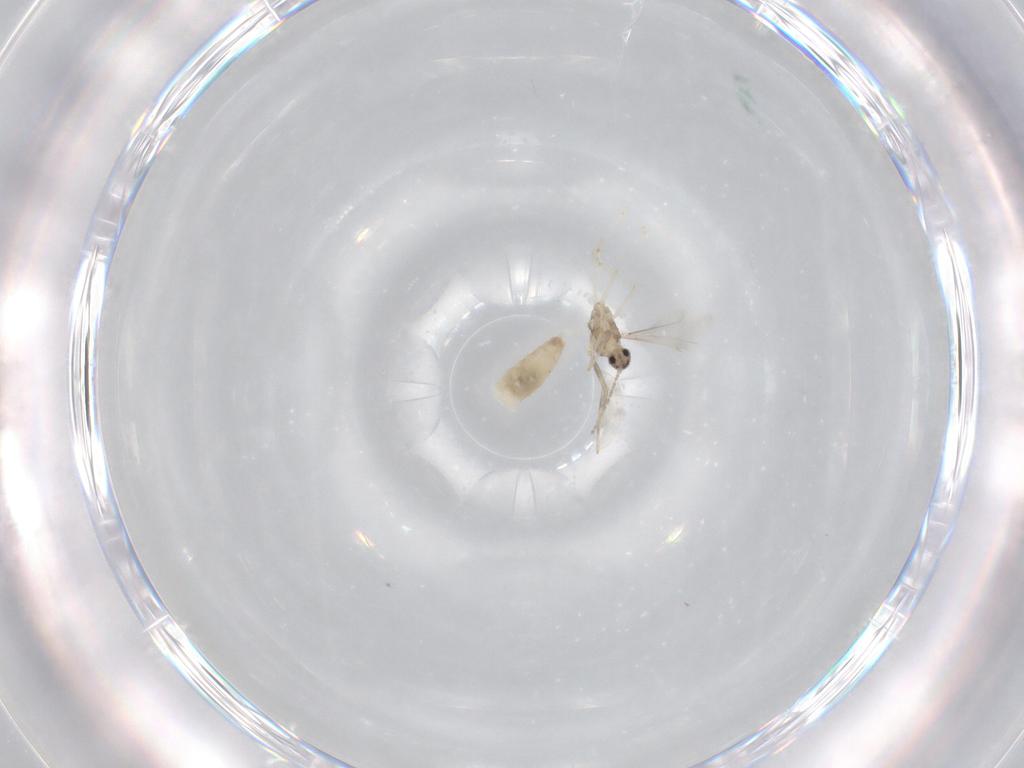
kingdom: Animalia
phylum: Arthropoda
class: Insecta
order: Diptera
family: Cecidomyiidae
